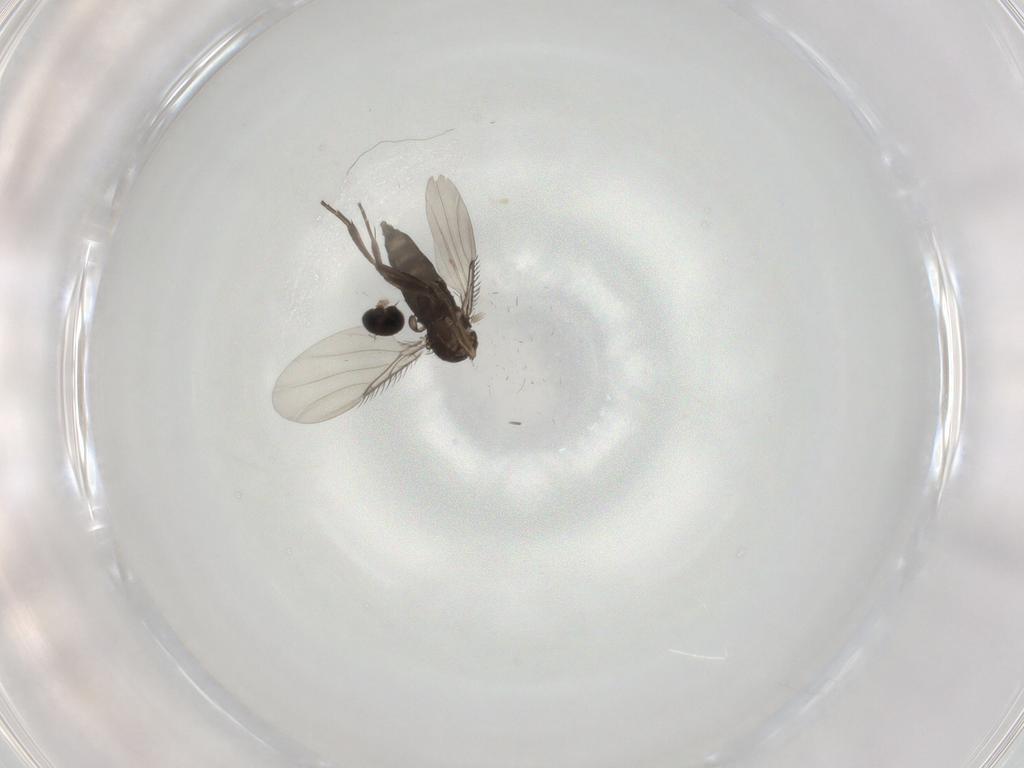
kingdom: Animalia
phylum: Arthropoda
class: Insecta
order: Diptera
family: Phoridae
